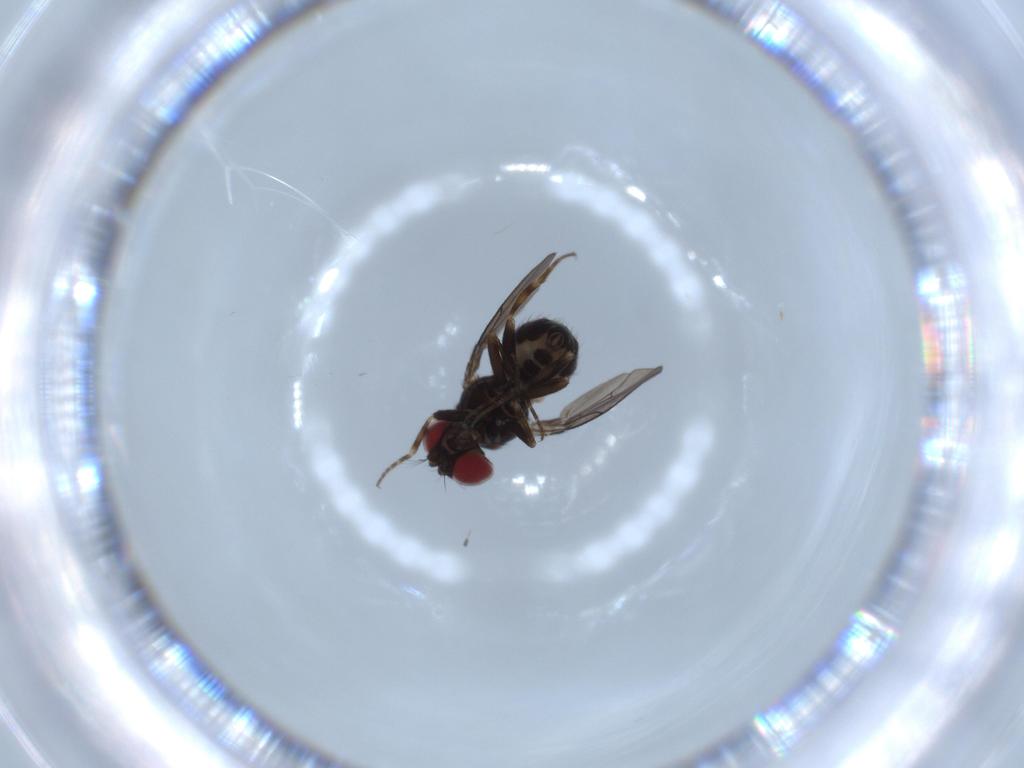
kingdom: Animalia
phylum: Arthropoda
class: Insecta
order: Diptera
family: Ephydridae
